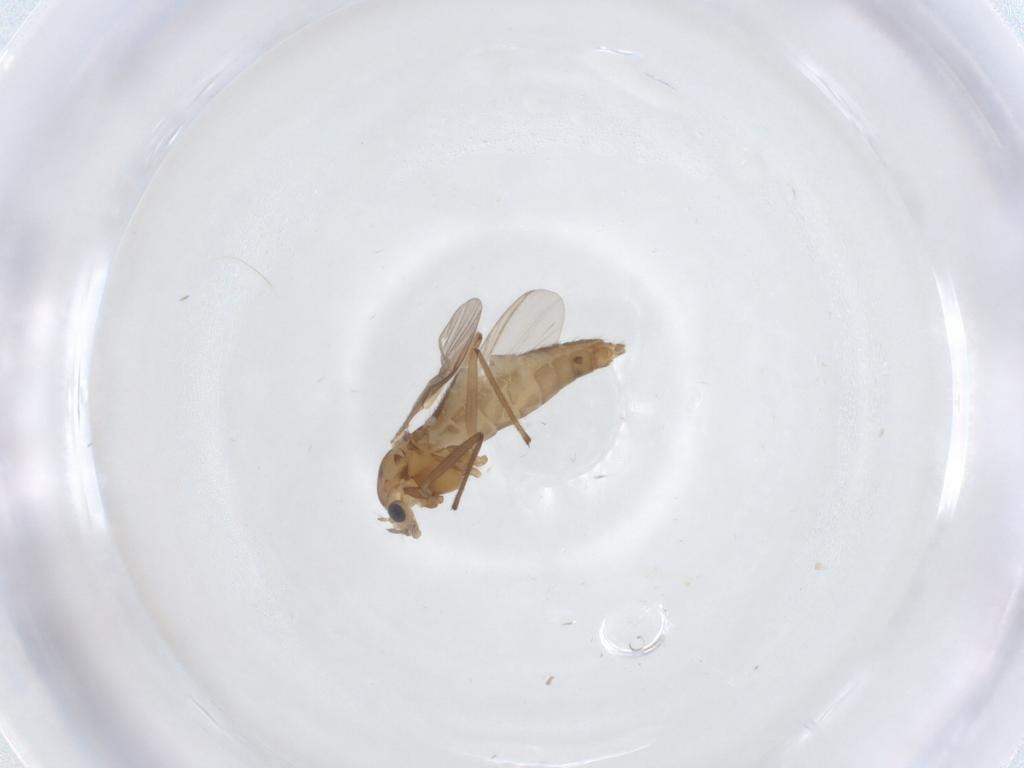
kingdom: Animalia
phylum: Arthropoda
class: Insecta
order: Diptera
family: Chironomidae
